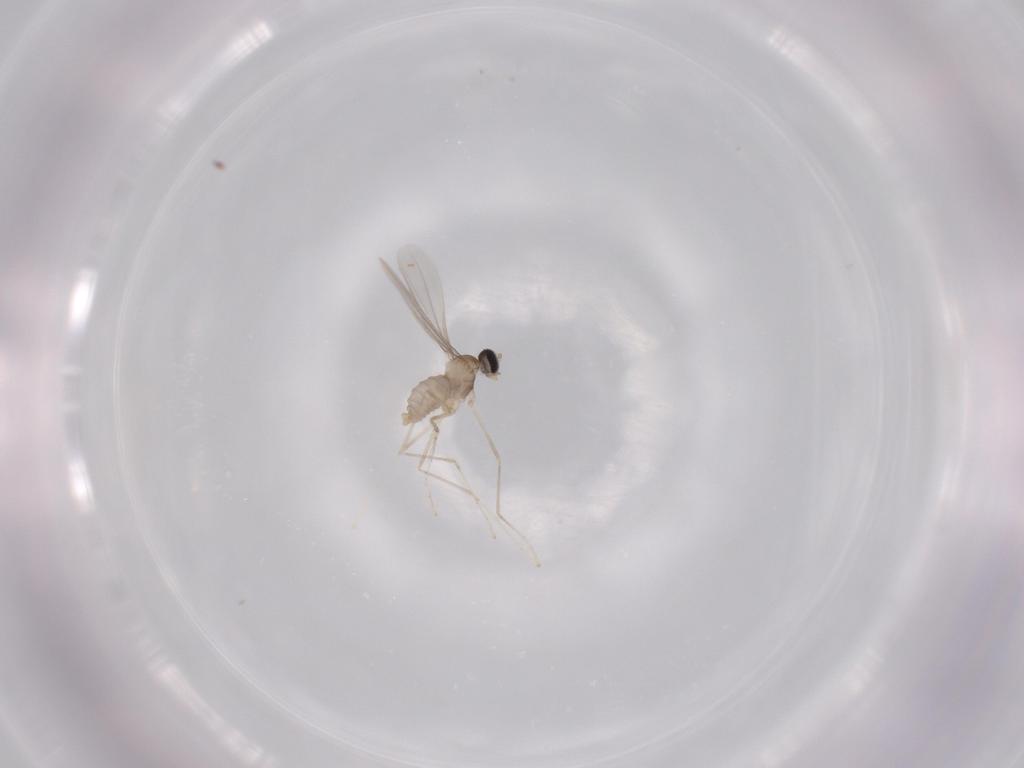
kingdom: Animalia
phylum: Arthropoda
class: Insecta
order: Diptera
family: Cecidomyiidae
